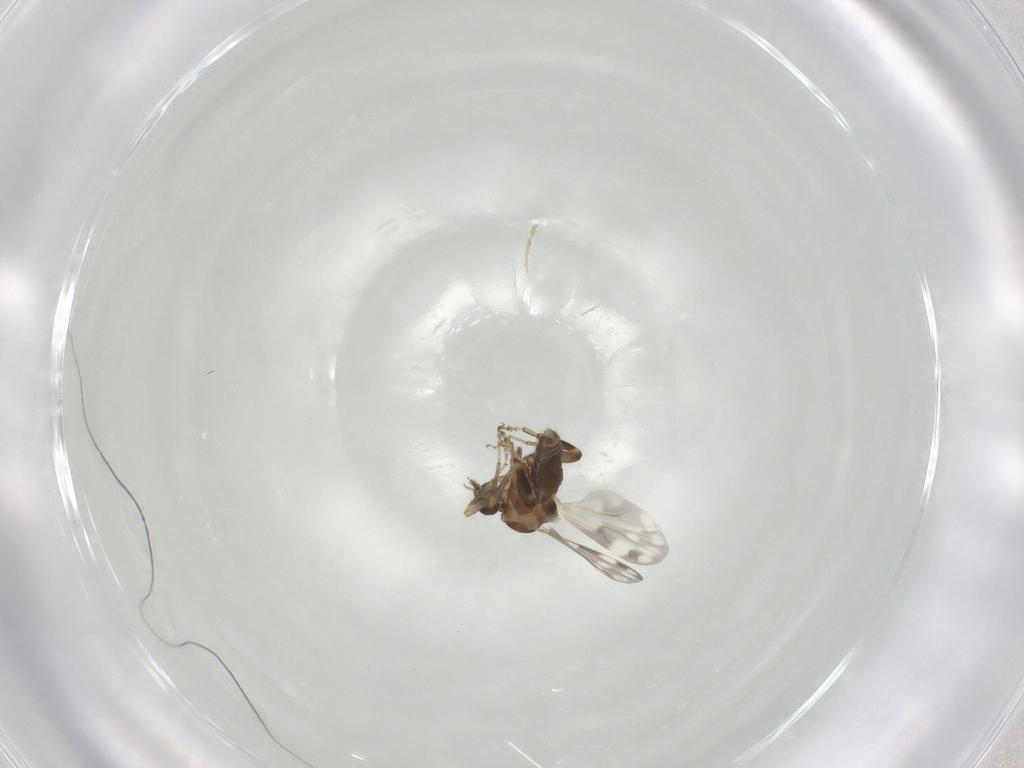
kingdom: Animalia
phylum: Arthropoda
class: Insecta
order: Diptera
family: Ceratopogonidae
